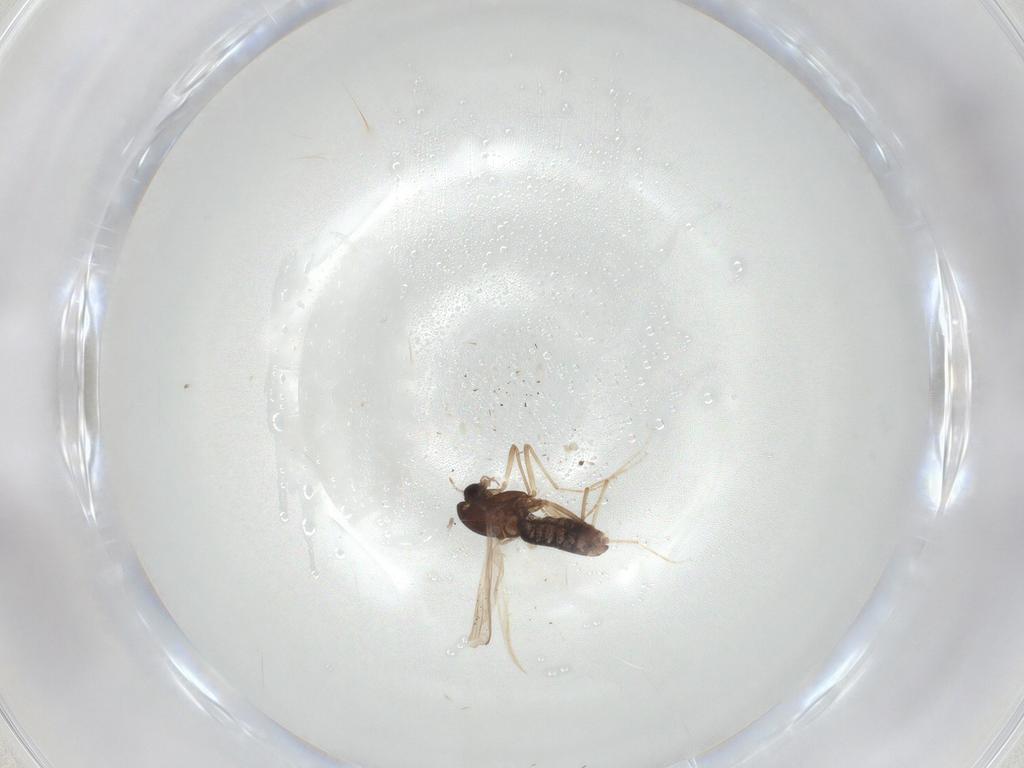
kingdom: Animalia
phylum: Arthropoda
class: Insecta
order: Diptera
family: Chironomidae
